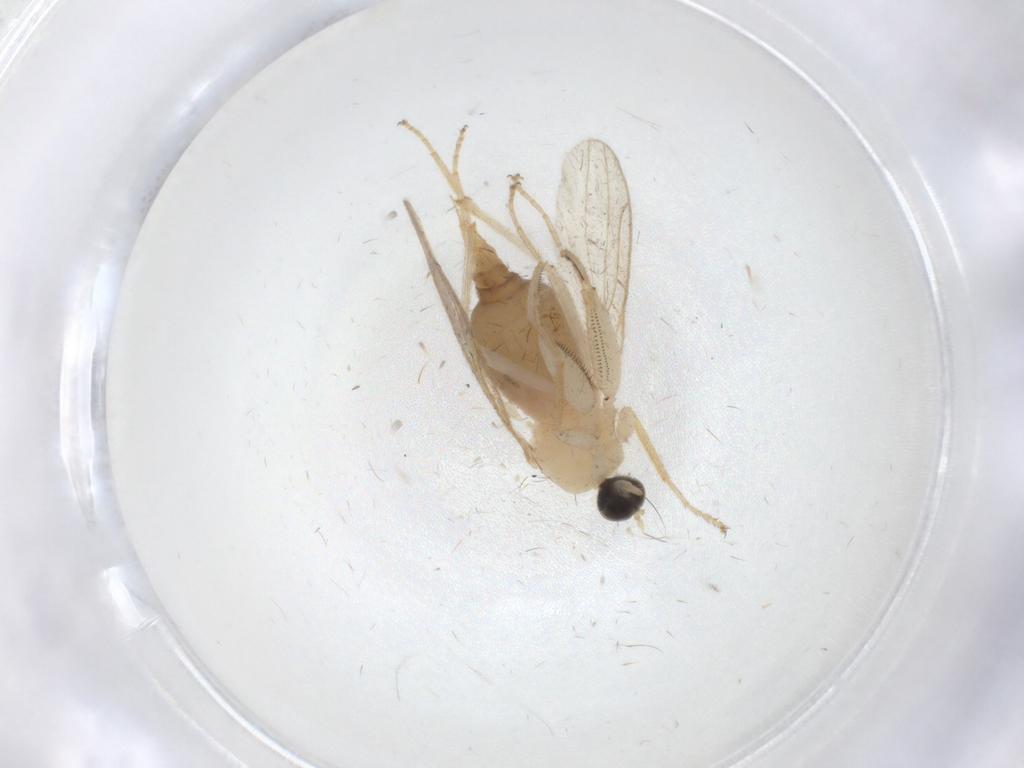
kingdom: Animalia
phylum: Arthropoda
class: Insecta
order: Diptera
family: Hybotidae
